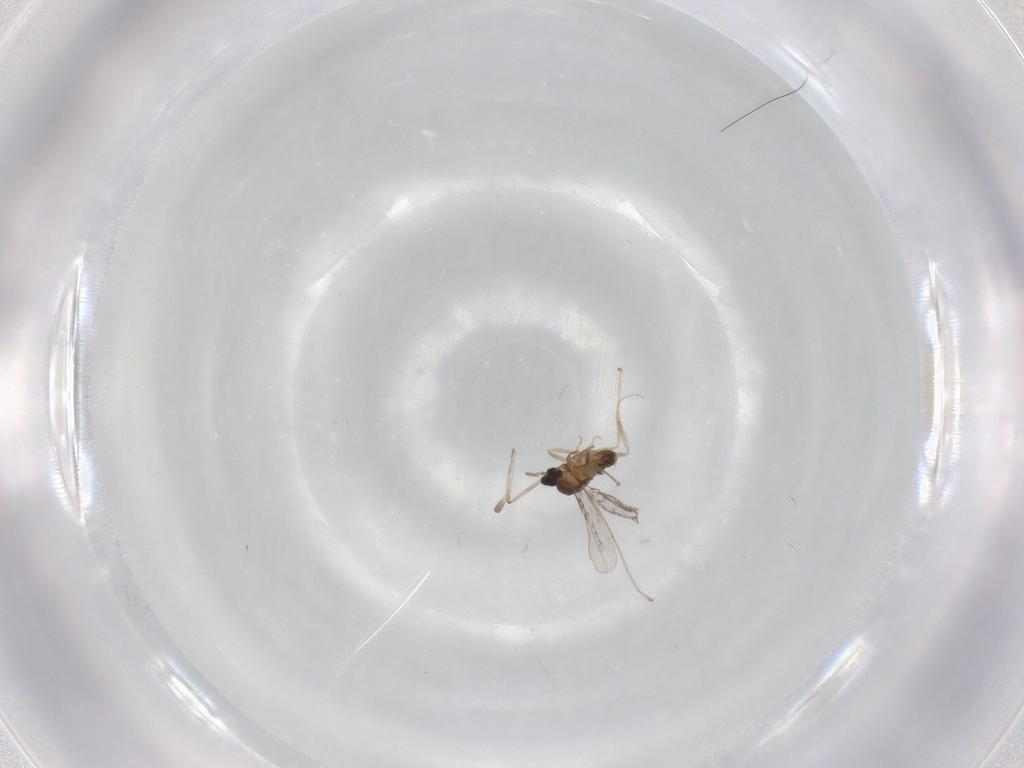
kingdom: Animalia
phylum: Arthropoda
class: Insecta
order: Diptera
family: Cecidomyiidae
